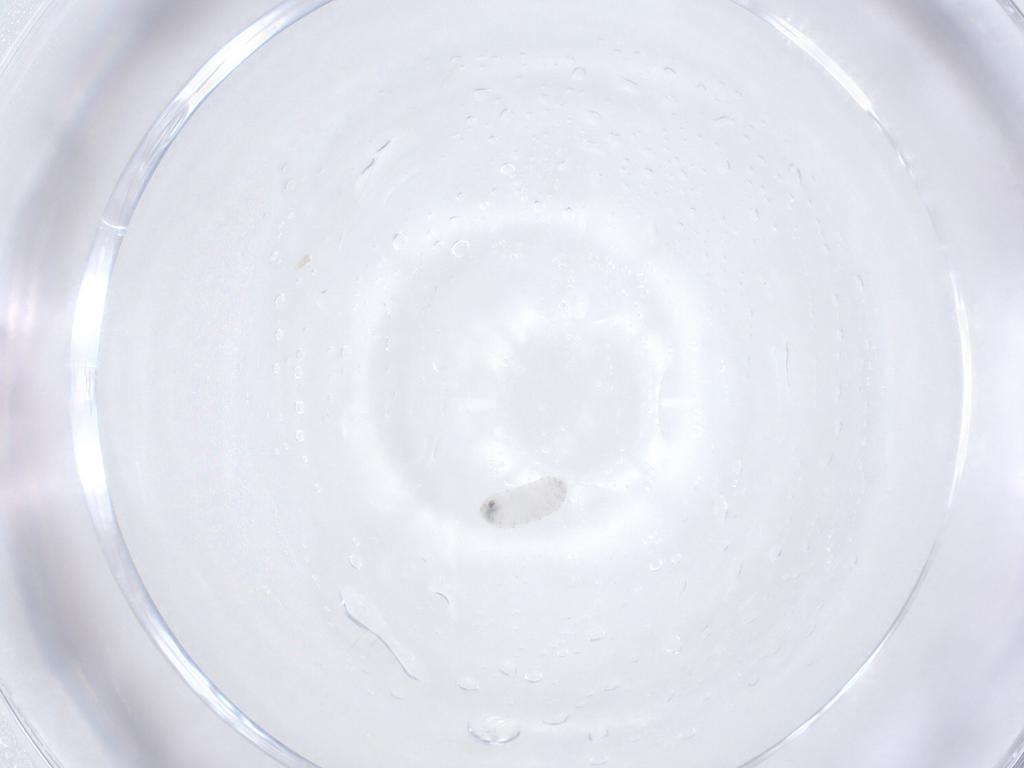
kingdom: Animalia
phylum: Arthropoda
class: Insecta
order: Diptera
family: Tachinidae
